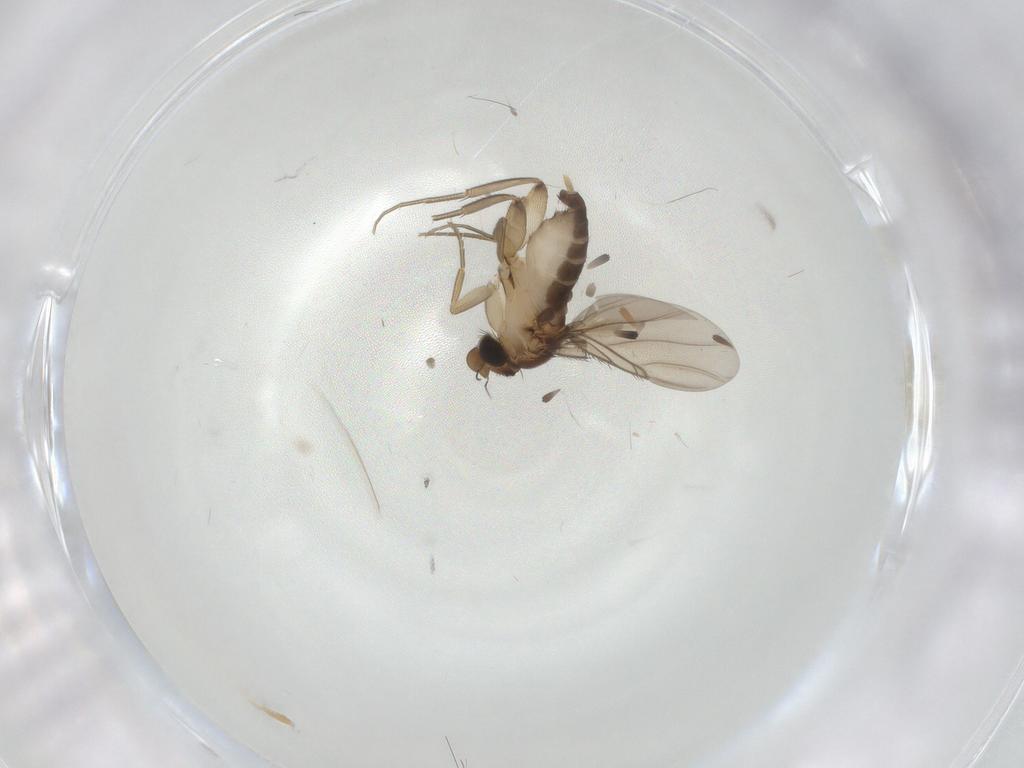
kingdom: Animalia
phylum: Arthropoda
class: Insecta
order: Diptera
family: Phoridae
